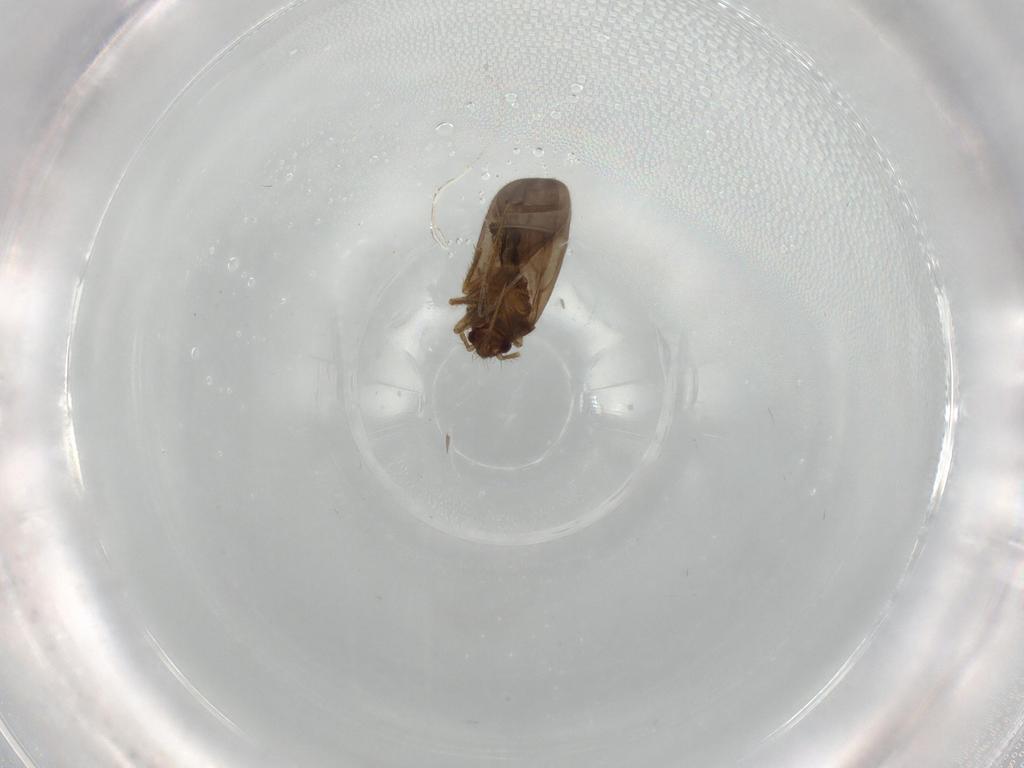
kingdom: Animalia
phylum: Arthropoda
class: Insecta
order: Hemiptera
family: Ceratocombidae
